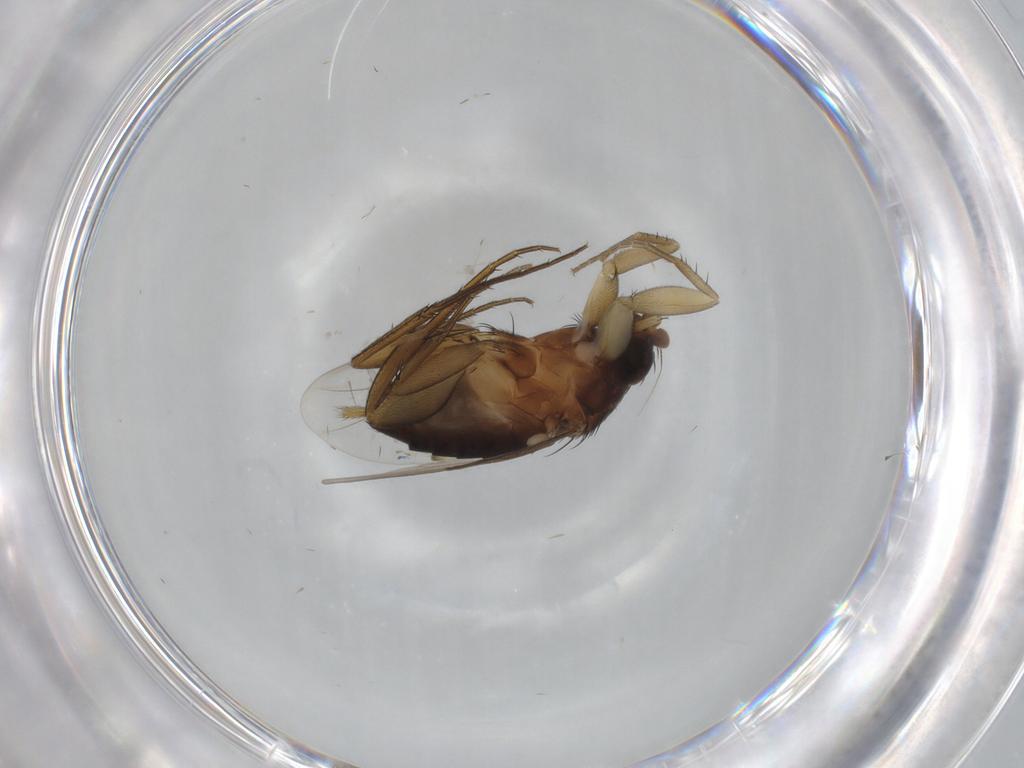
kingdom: Animalia
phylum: Arthropoda
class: Insecta
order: Diptera
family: Phoridae
